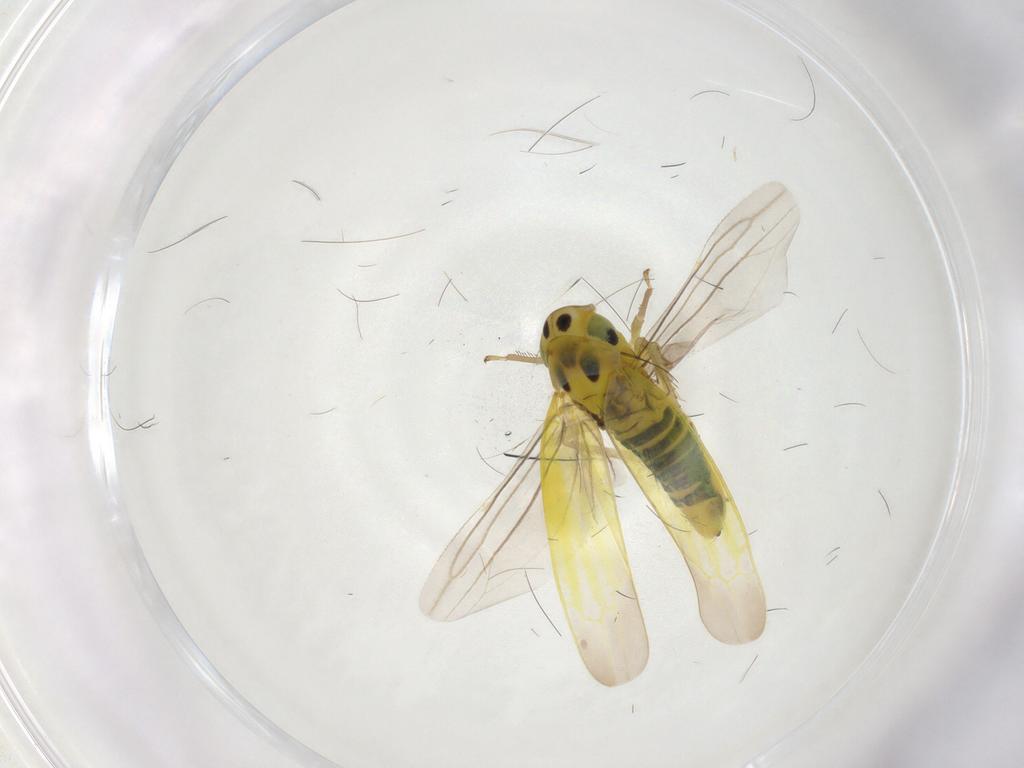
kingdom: Animalia
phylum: Arthropoda
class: Insecta
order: Hemiptera
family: Cicadellidae
